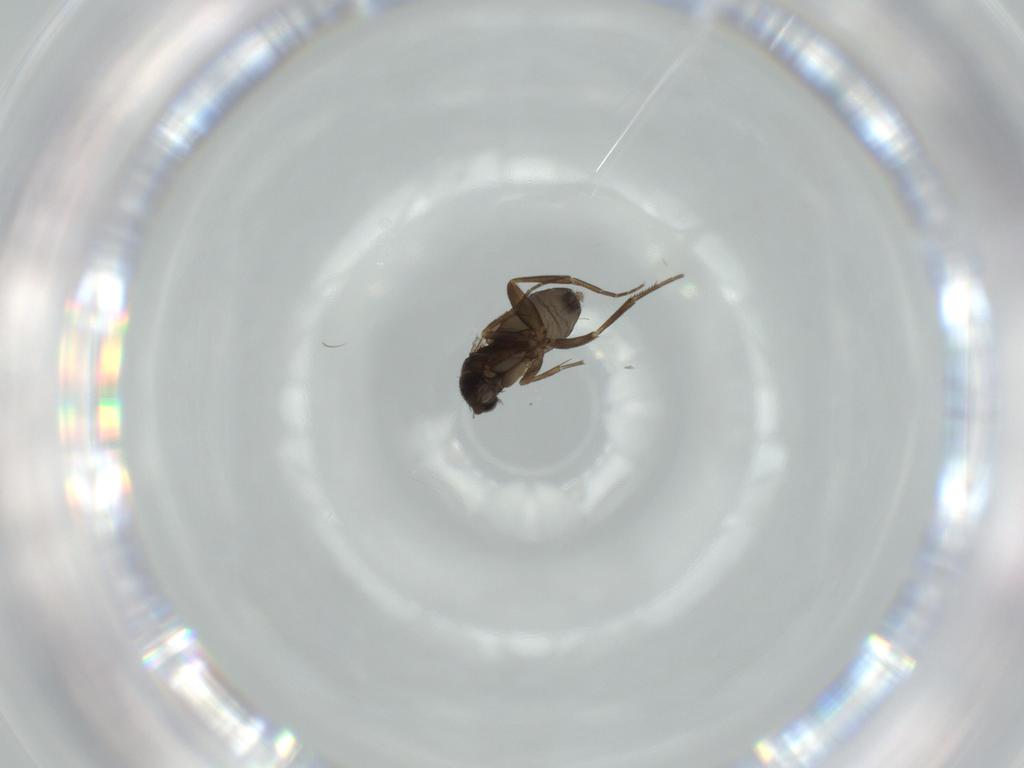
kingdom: Animalia
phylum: Arthropoda
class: Insecta
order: Diptera
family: Phoridae
